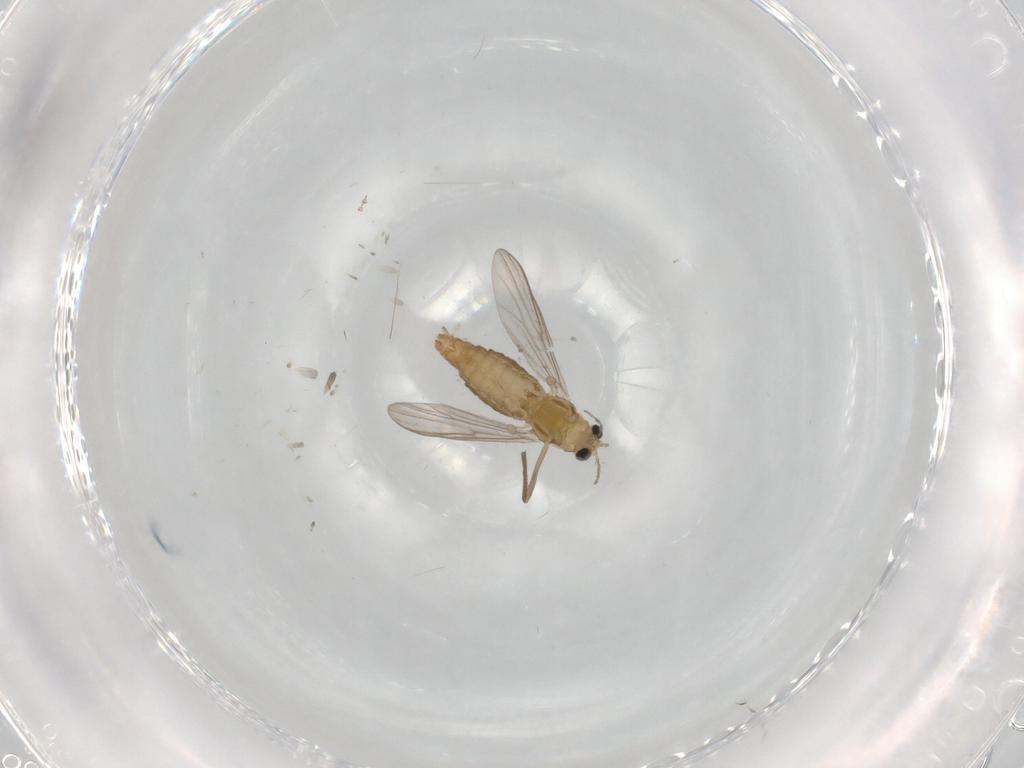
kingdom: Animalia
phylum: Arthropoda
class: Insecta
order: Diptera
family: Chironomidae
